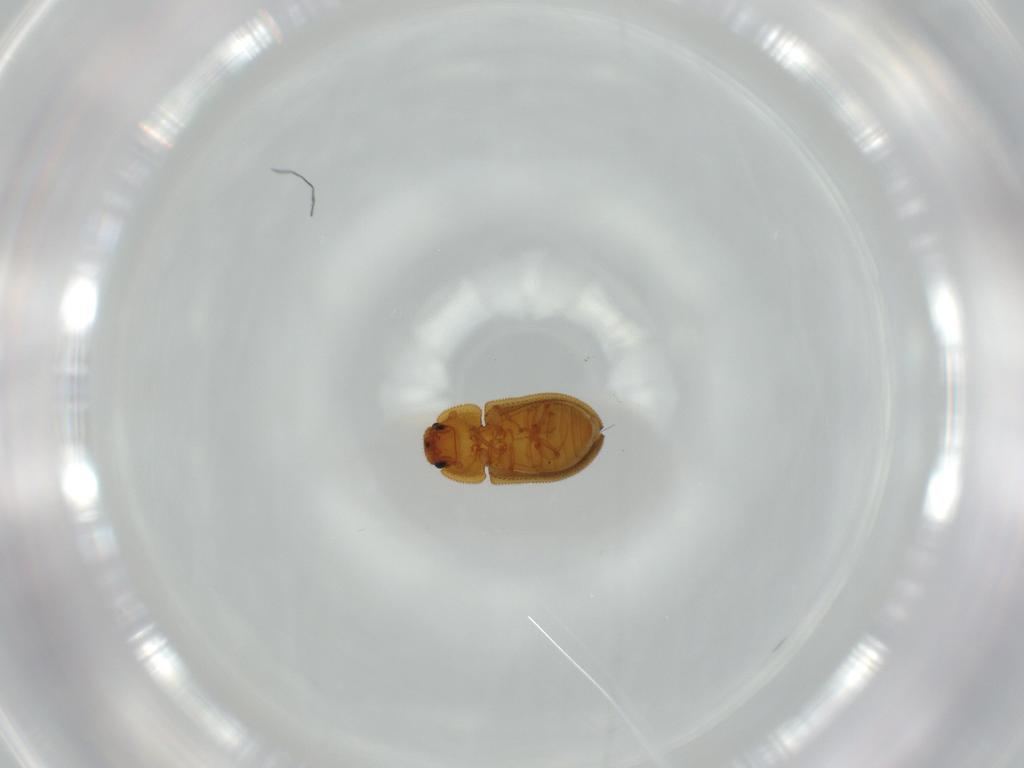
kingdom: Animalia
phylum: Arthropoda
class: Insecta
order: Coleoptera
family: Zopheridae
